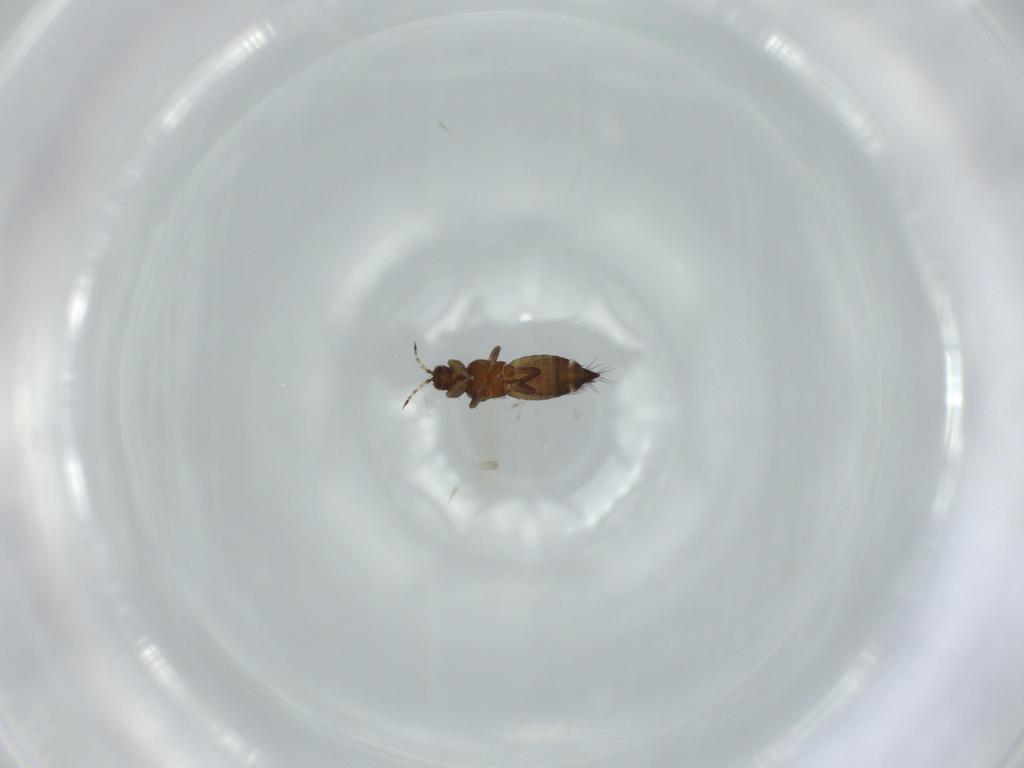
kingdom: Animalia
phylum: Arthropoda
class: Insecta
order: Thysanoptera
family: Thripidae
